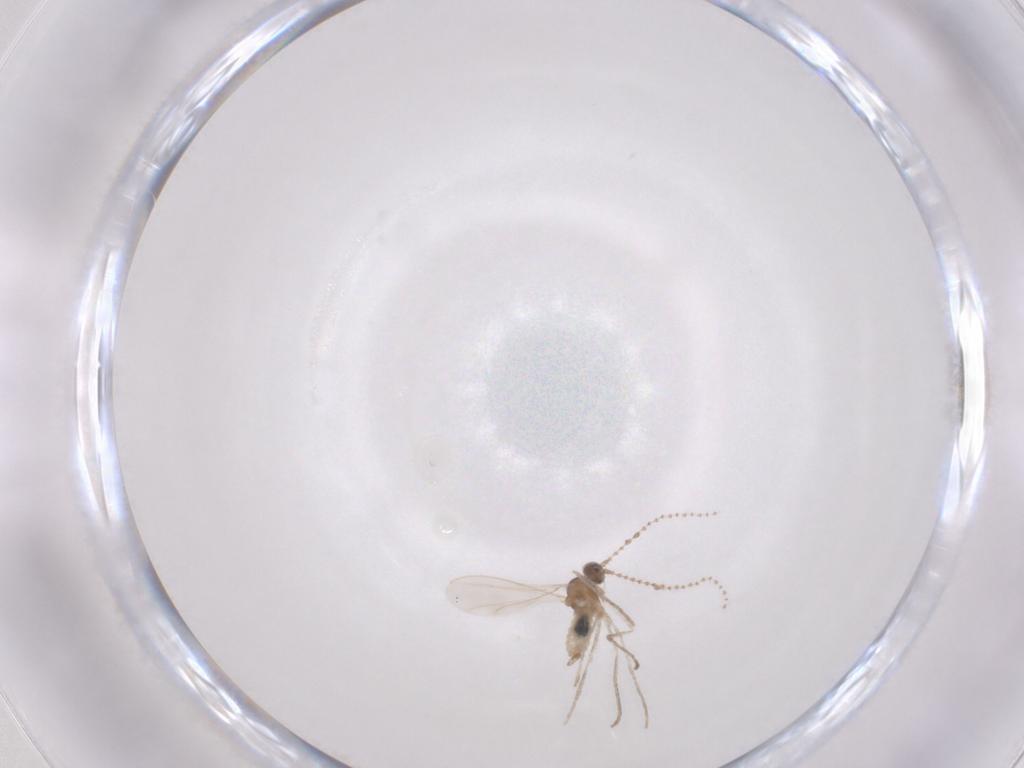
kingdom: Animalia
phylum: Arthropoda
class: Insecta
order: Diptera
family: Cecidomyiidae
